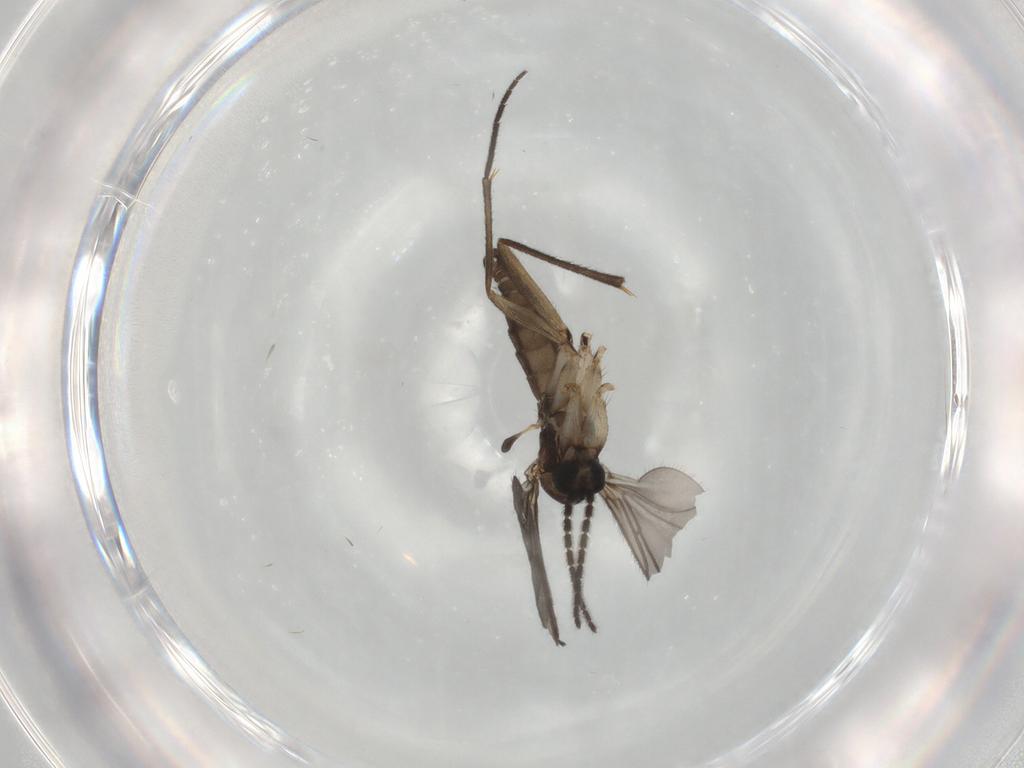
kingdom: Animalia
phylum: Arthropoda
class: Insecta
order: Diptera
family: Sciaridae
